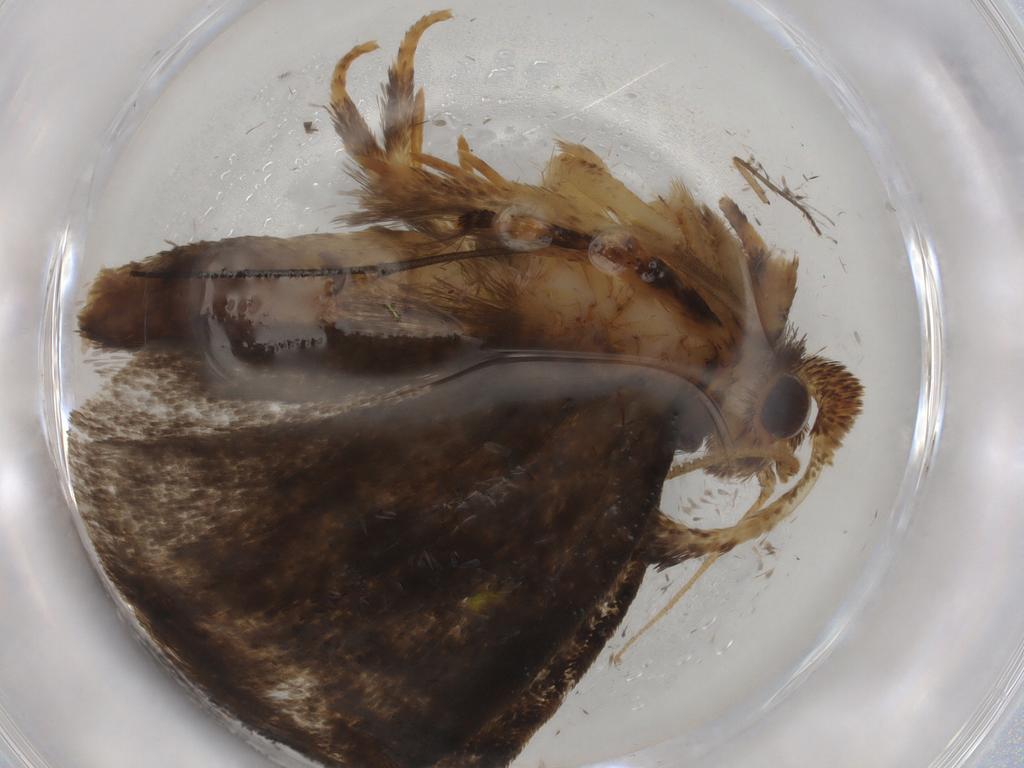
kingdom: Animalia
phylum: Arthropoda
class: Insecta
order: Lepidoptera
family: Tineidae
